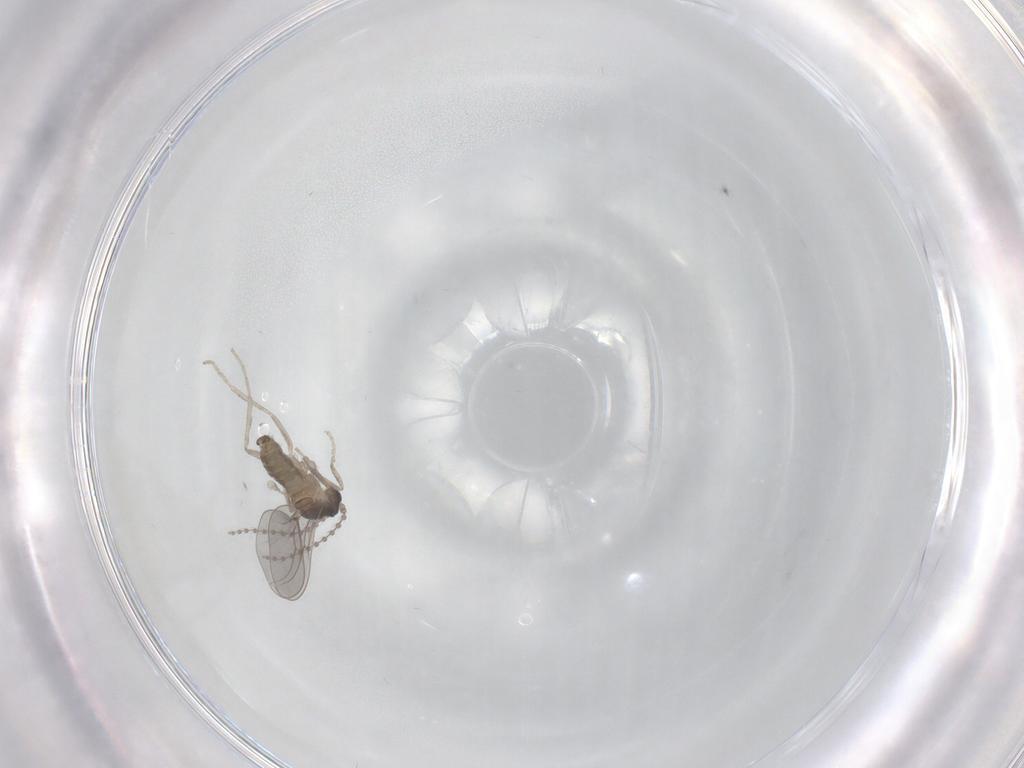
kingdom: Animalia
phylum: Arthropoda
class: Insecta
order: Diptera
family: Cecidomyiidae
